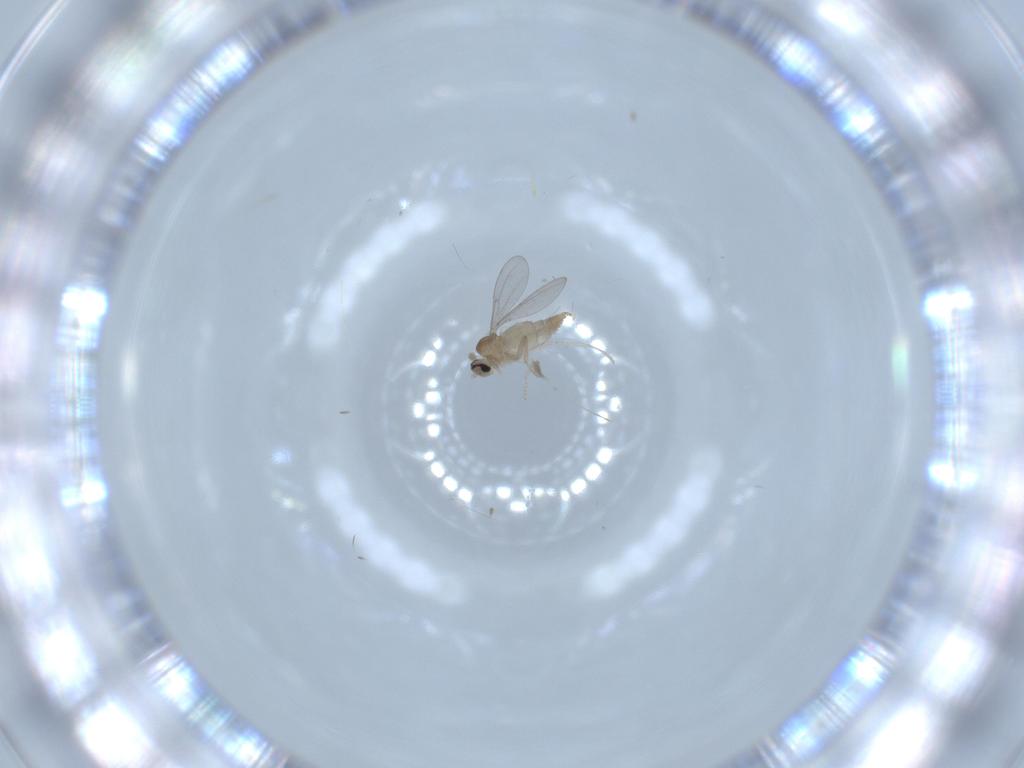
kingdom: Animalia
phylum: Arthropoda
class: Insecta
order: Diptera
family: Cecidomyiidae
